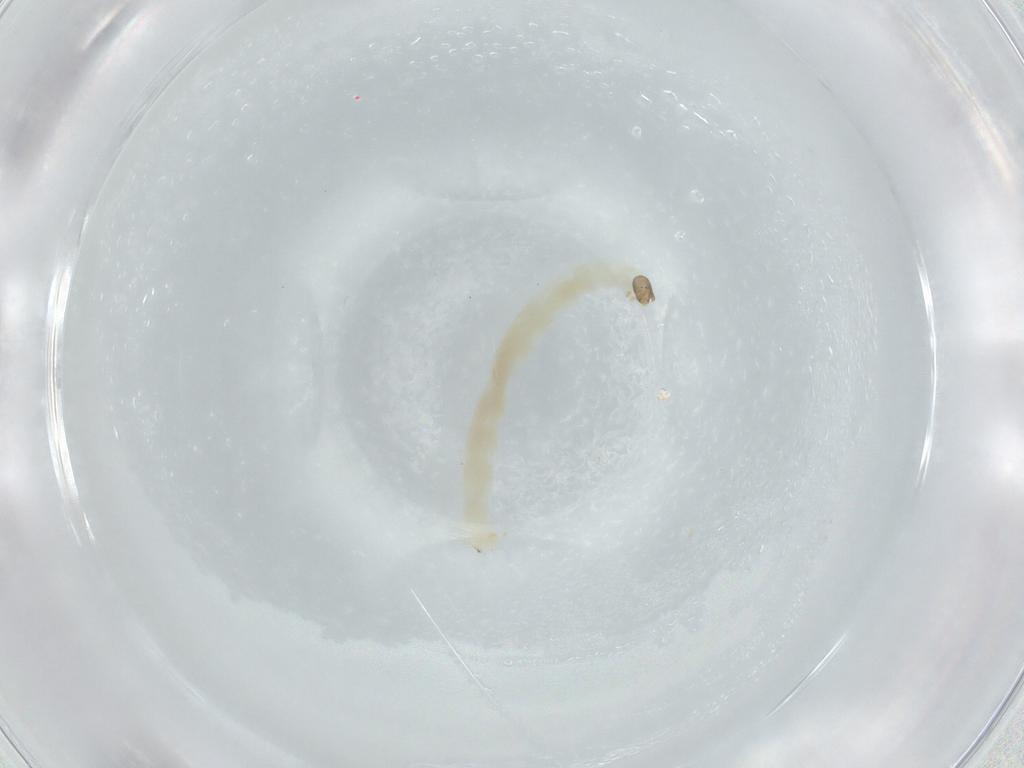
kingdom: Animalia
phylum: Arthropoda
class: Insecta
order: Diptera
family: Chironomidae
